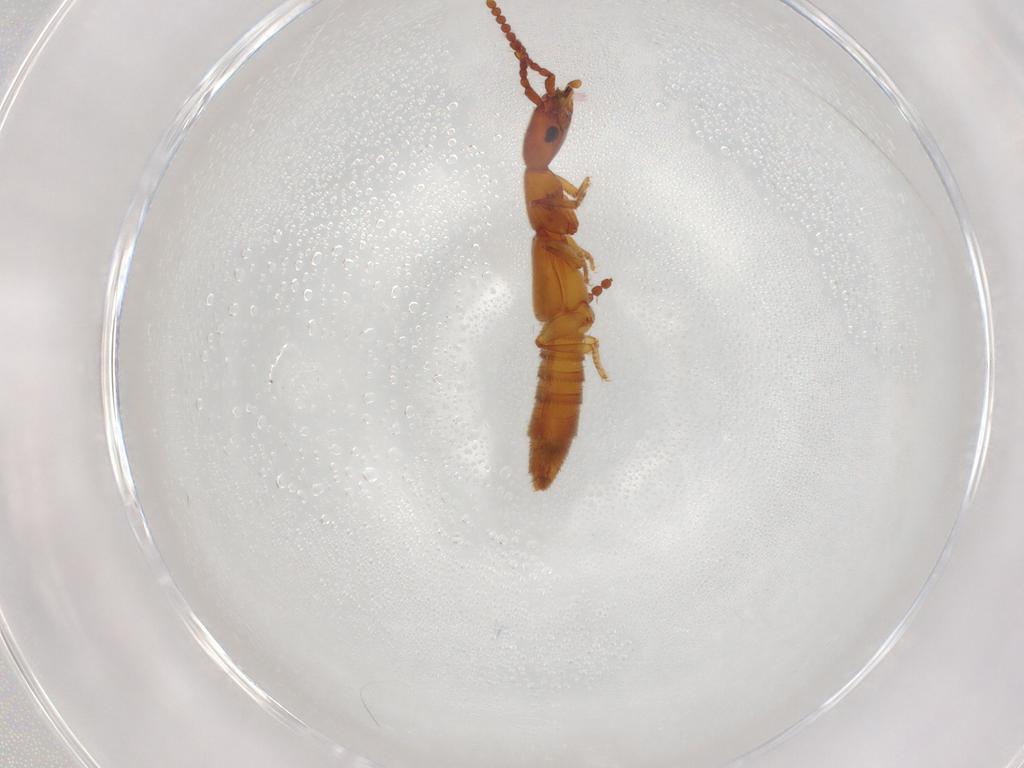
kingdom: Animalia
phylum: Arthropoda
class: Insecta
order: Coleoptera
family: Staphylinidae
